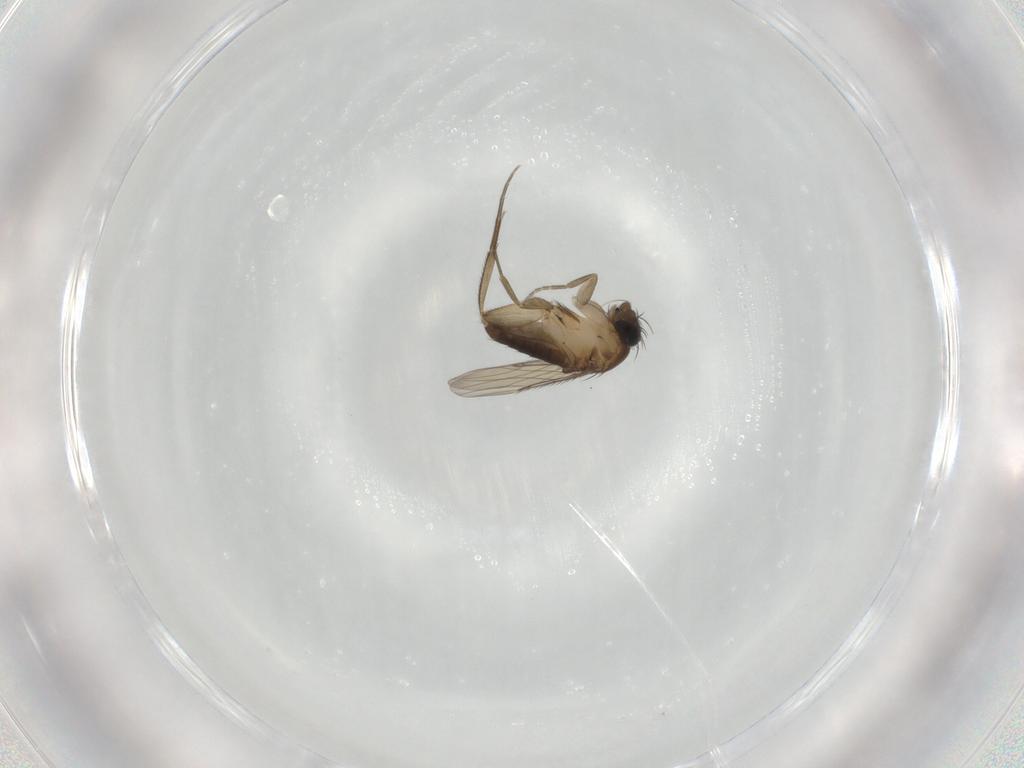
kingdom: Animalia
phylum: Arthropoda
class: Insecta
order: Diptera
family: Phoridae
